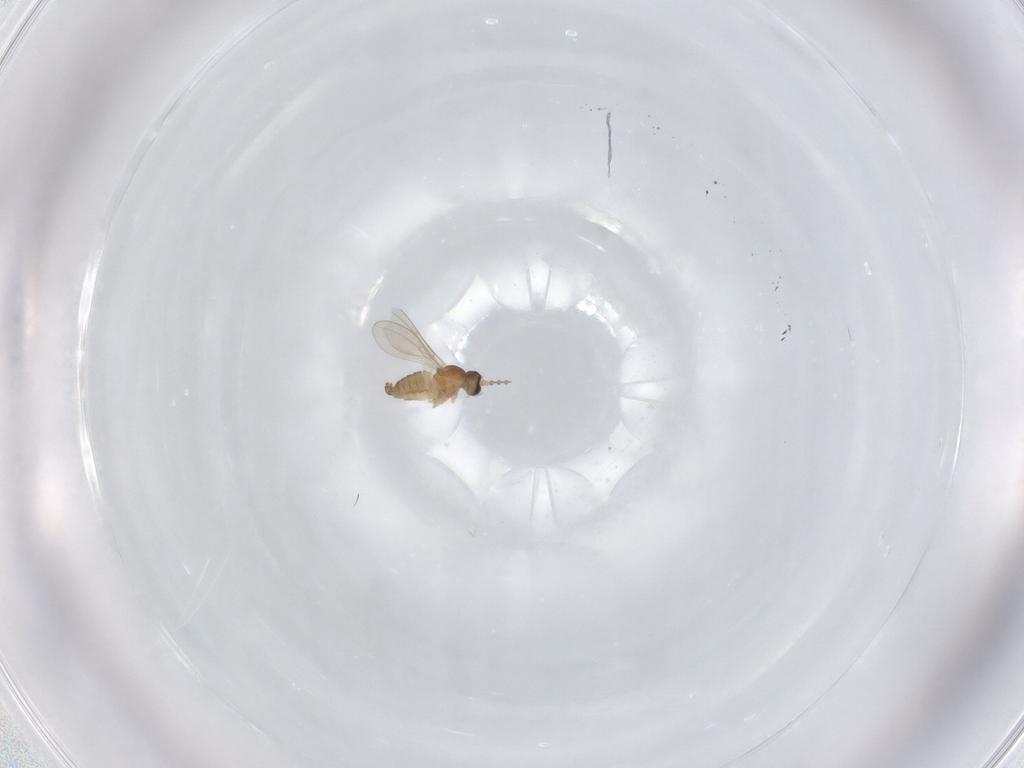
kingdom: Animalia
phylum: Arthropoda
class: Insecta
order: Diptera
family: Cecidomyiidae
